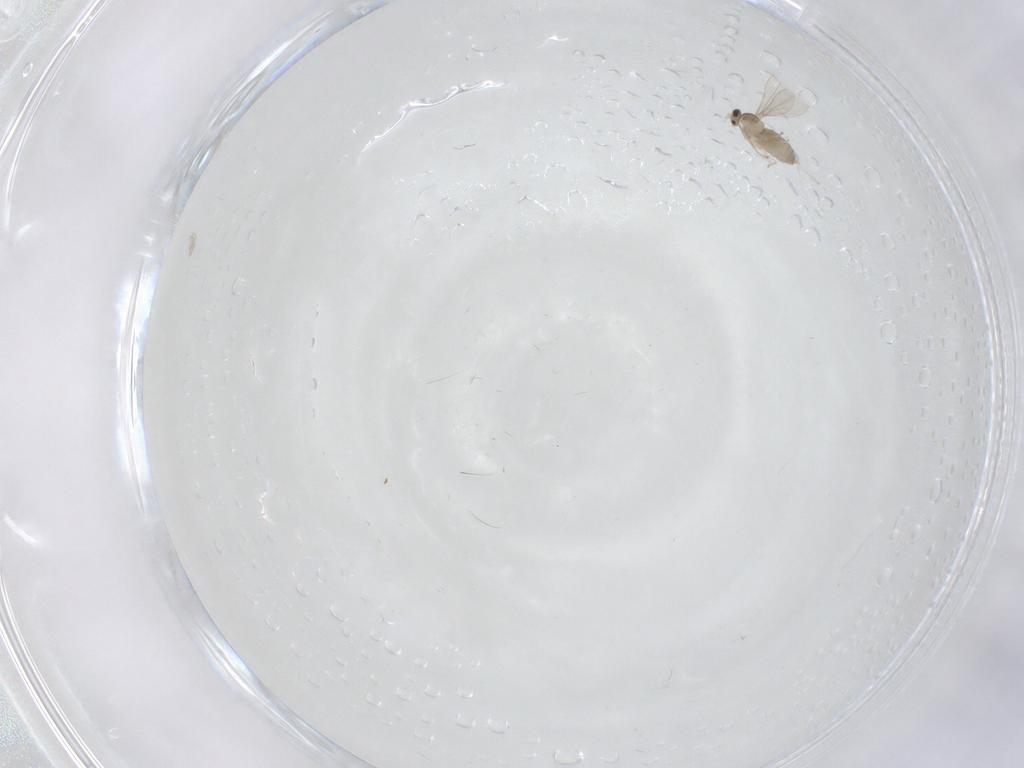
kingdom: Animalia
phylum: Arthropoda
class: Insecta
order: Diptera
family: Cecidomyiidae
